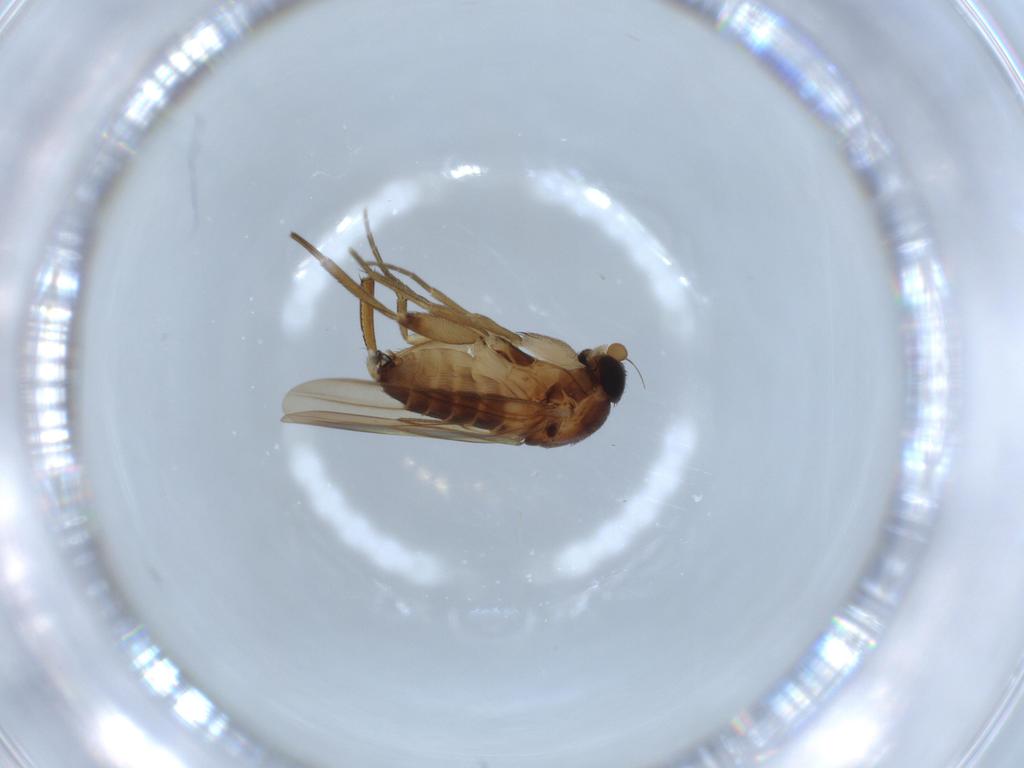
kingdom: Animalia
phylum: Arthropoda
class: Insecta
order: Diptera
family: Phoridae
